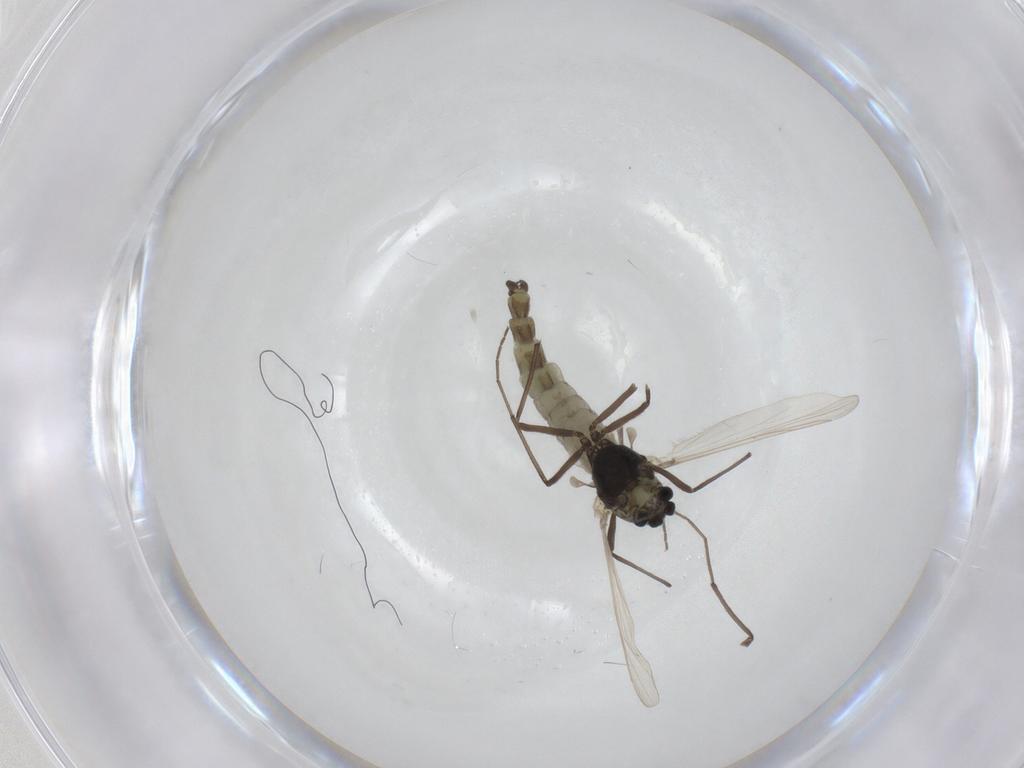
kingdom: Animalia
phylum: Arthropoda
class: Insecta
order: Diptera
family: Chironomidae
